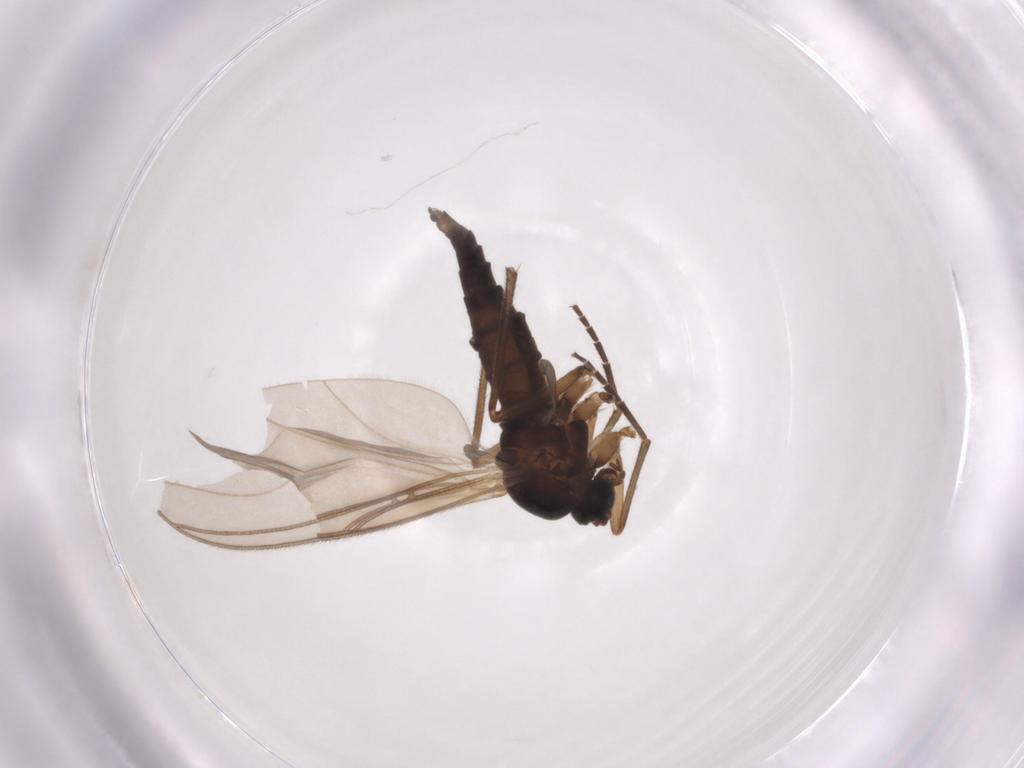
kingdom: Animalia
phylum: Arthropoda
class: Insecta
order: Diptera
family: Sciaridae
